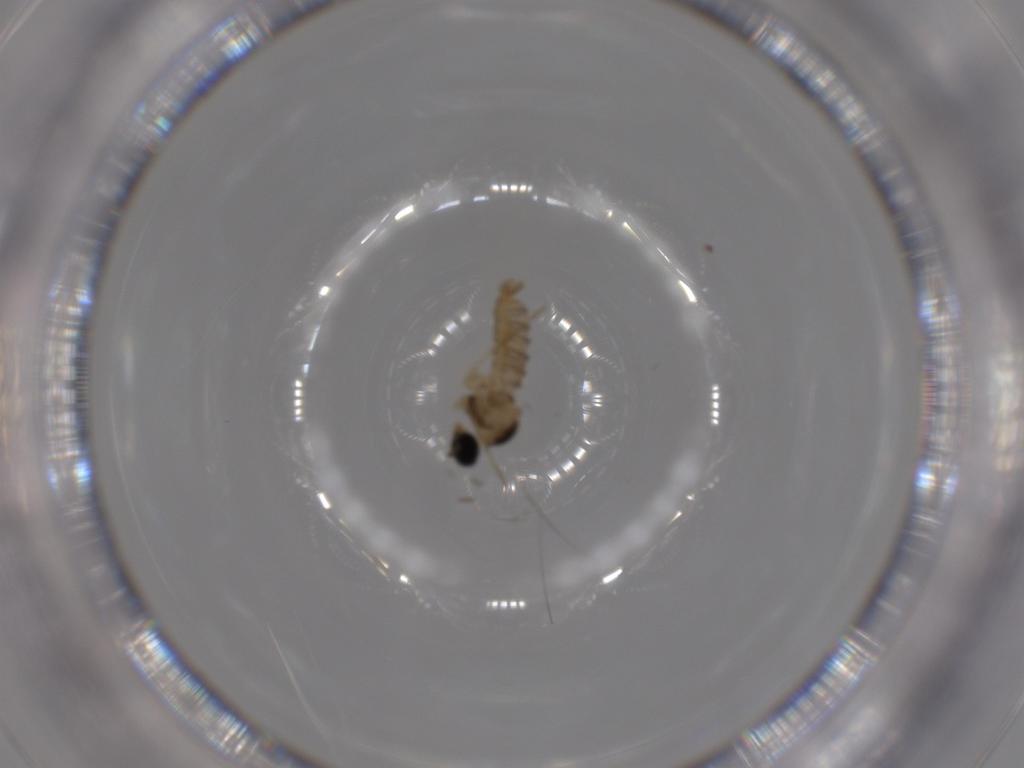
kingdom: Animalia
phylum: Arthropoda
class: Insecta
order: Diptera
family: Cecidomyiidae
